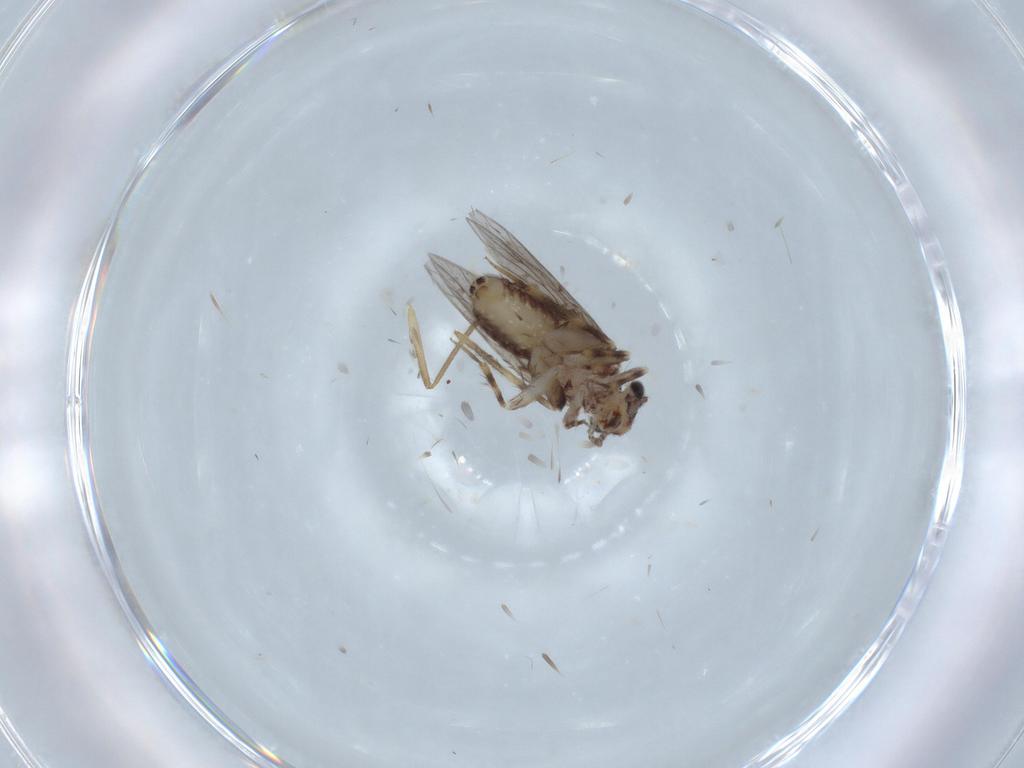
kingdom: Animalia
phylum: Arthropoda
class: Insecta
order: Psocodea
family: Lepidopsocidae
